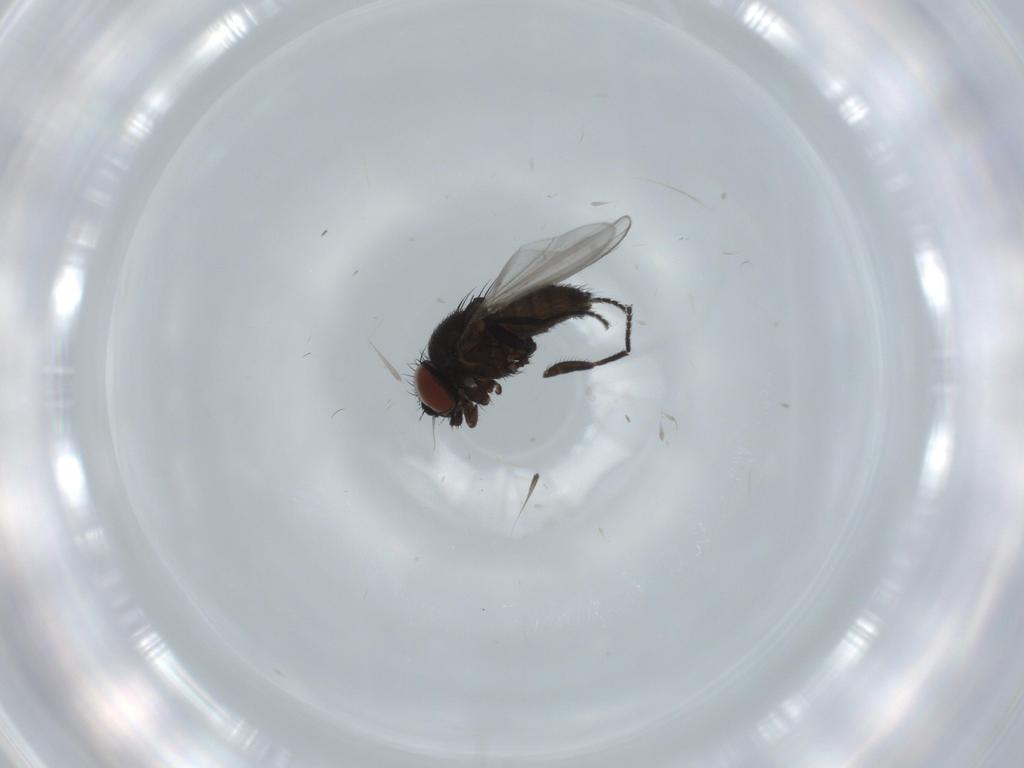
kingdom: Animalia
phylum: Arthropoda
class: Insecta
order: Diptera
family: Milichiidae
